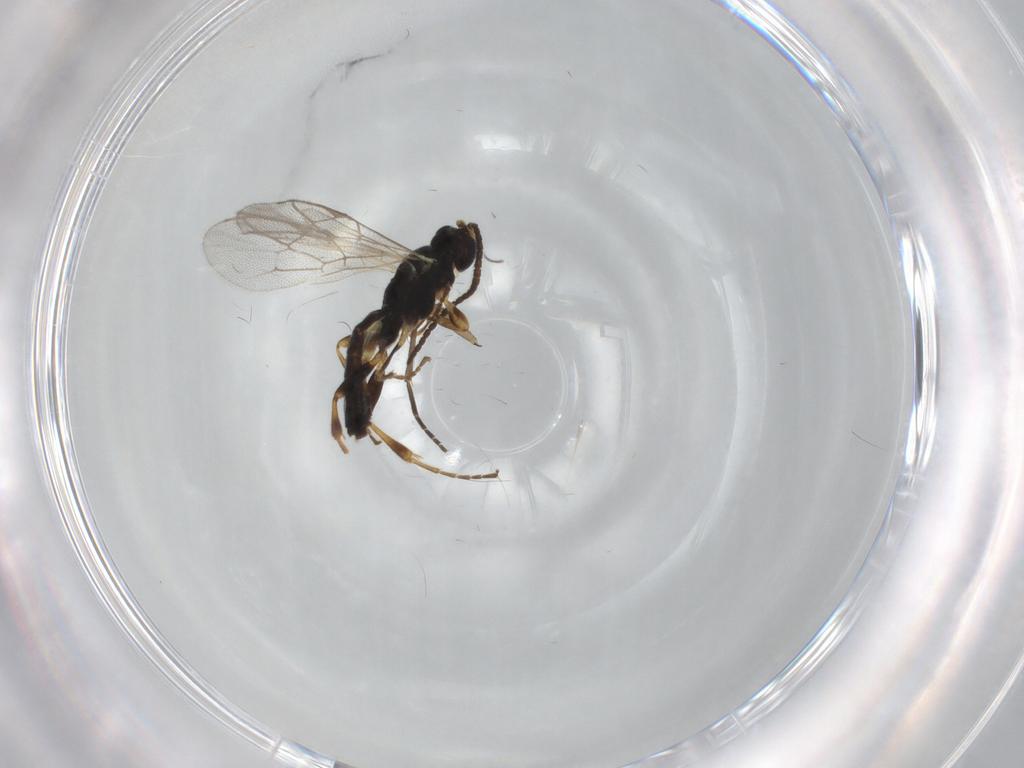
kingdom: Animalia
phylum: Arthropoda
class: Insecta
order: Hymenoptera
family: Ichneumonidae
